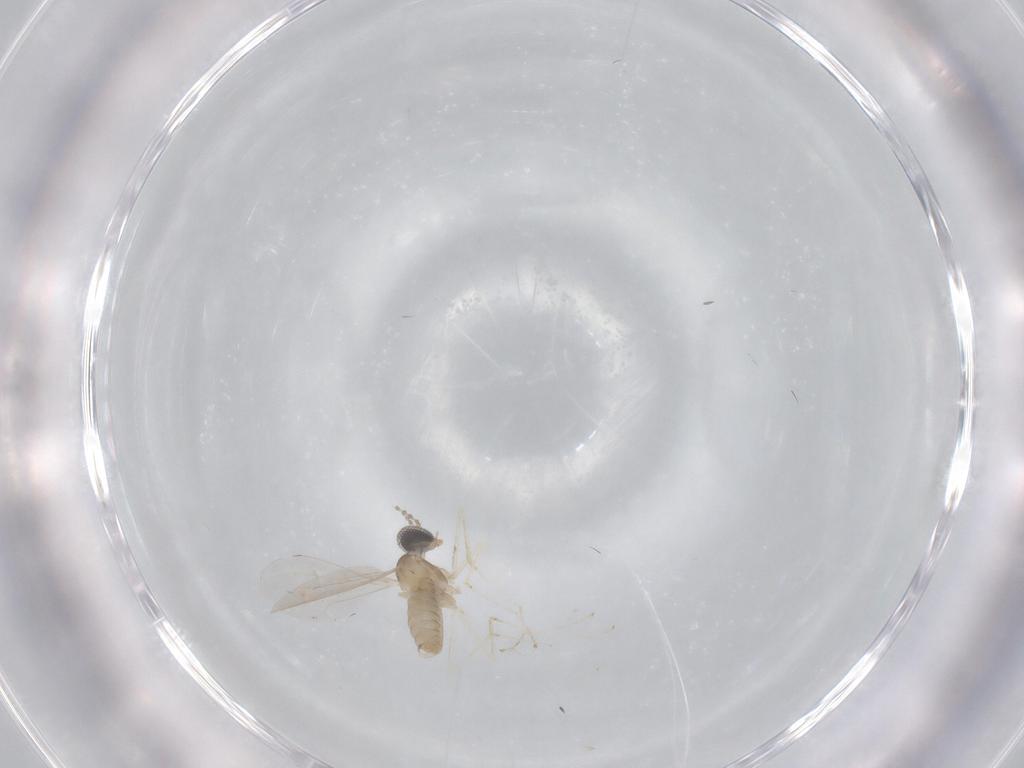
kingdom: Animalia
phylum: Arthropoda
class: Insecta
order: Diptera
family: Cecidomyiidae
